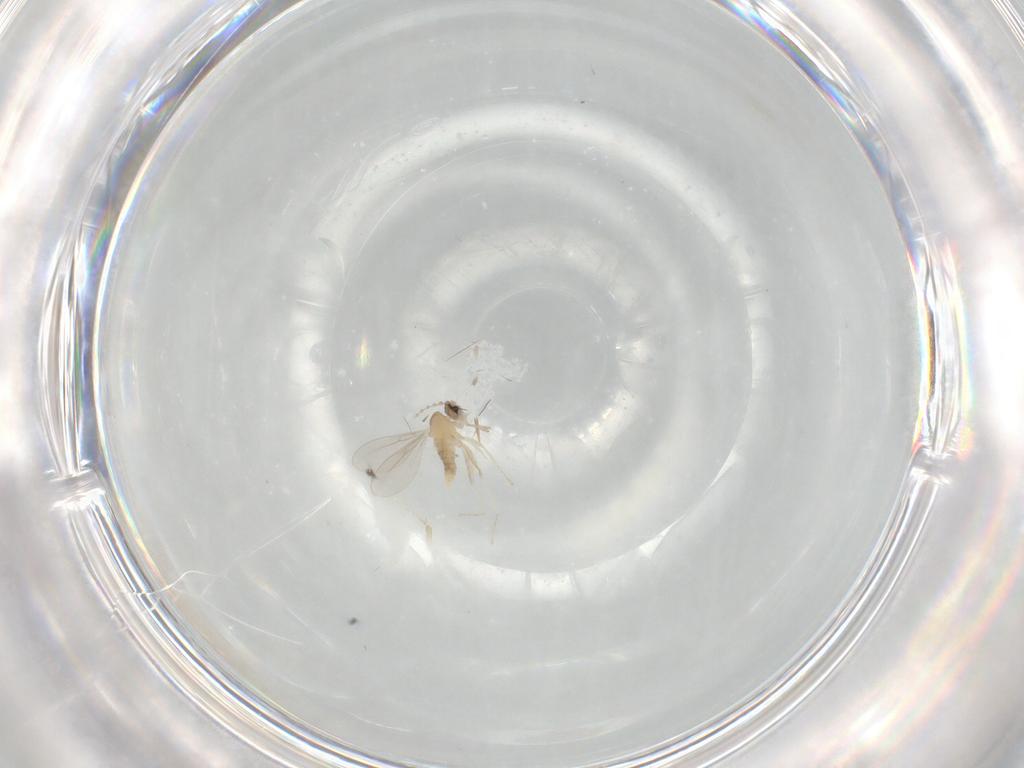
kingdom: Animalia
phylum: Arthropoda
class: Insecta
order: Diptera
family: Cecidomyiidae
